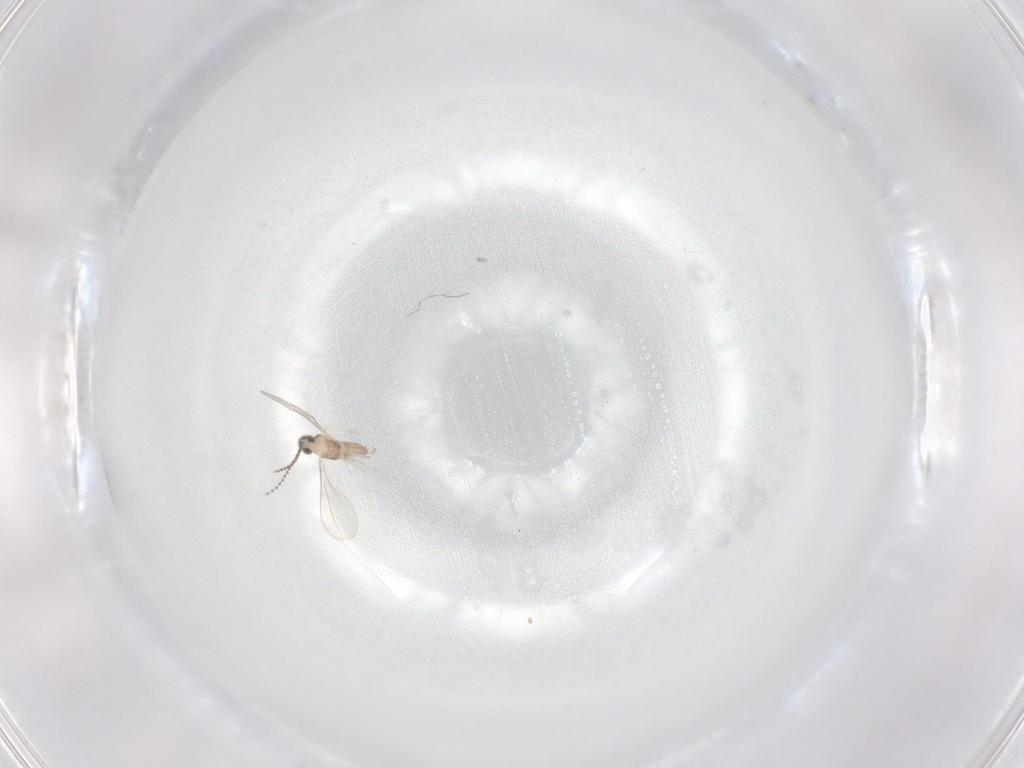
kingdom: Animalia
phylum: Arthropoda
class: Insecta
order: Diptera
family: Cecidomyiidae
